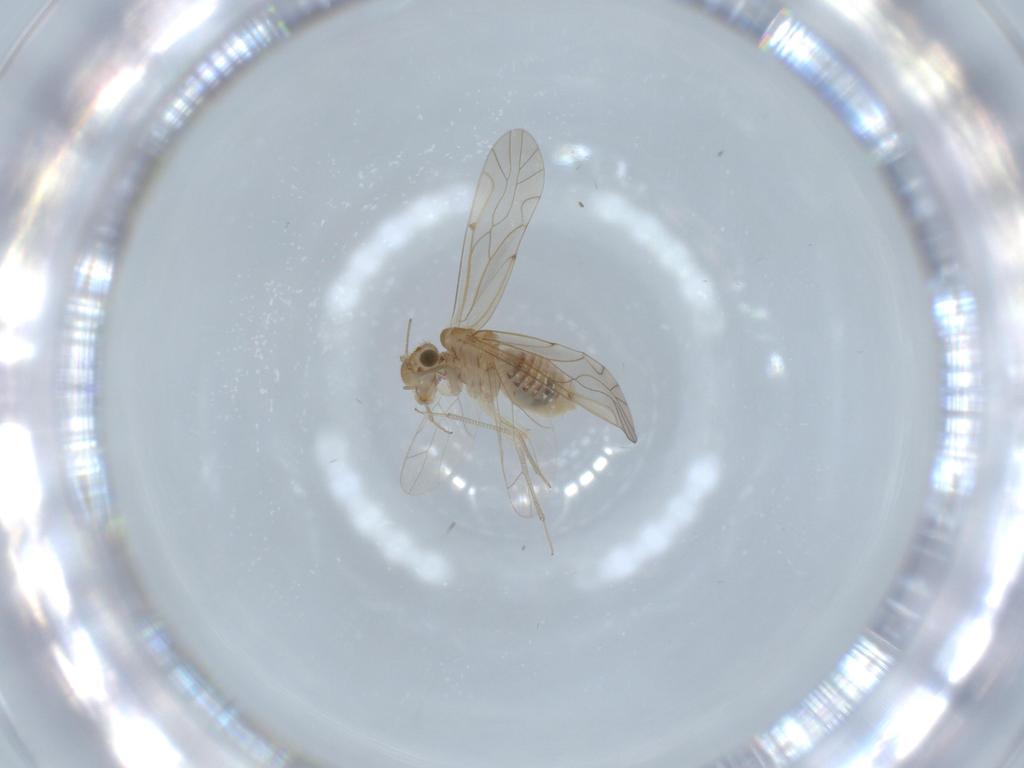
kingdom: Animalia
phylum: Arthropoda
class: Insecta
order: Psocodea
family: Lachesillidae
